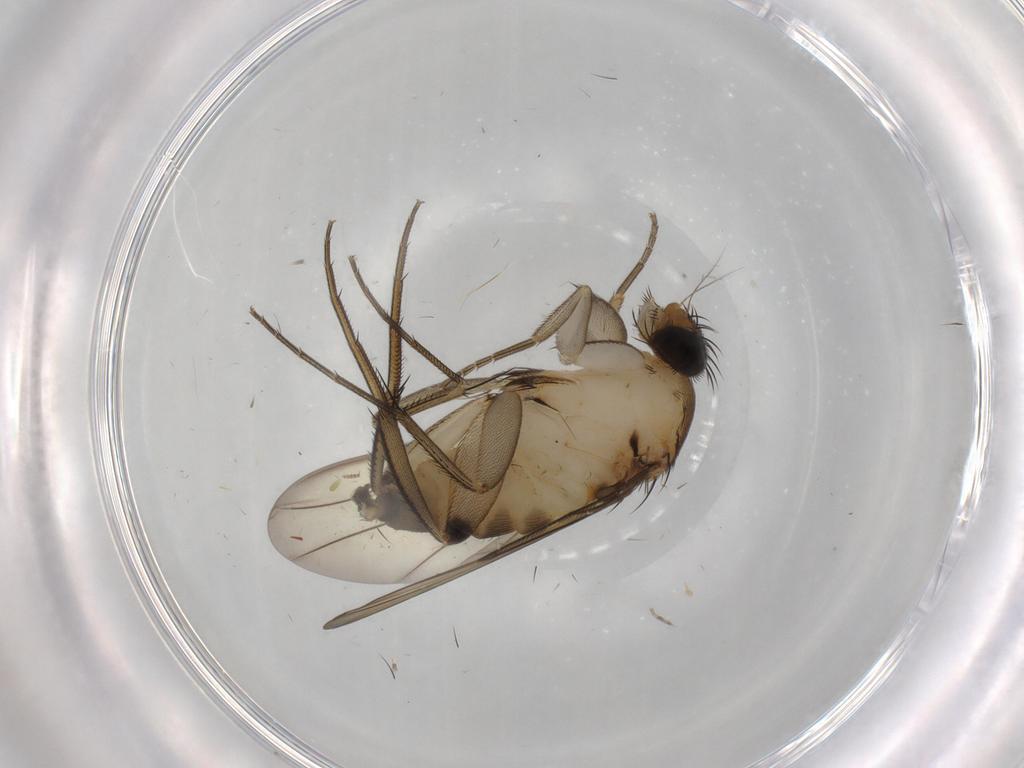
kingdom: Animalia
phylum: Arthropoda
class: Insecta
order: Diptera
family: Phoridae
